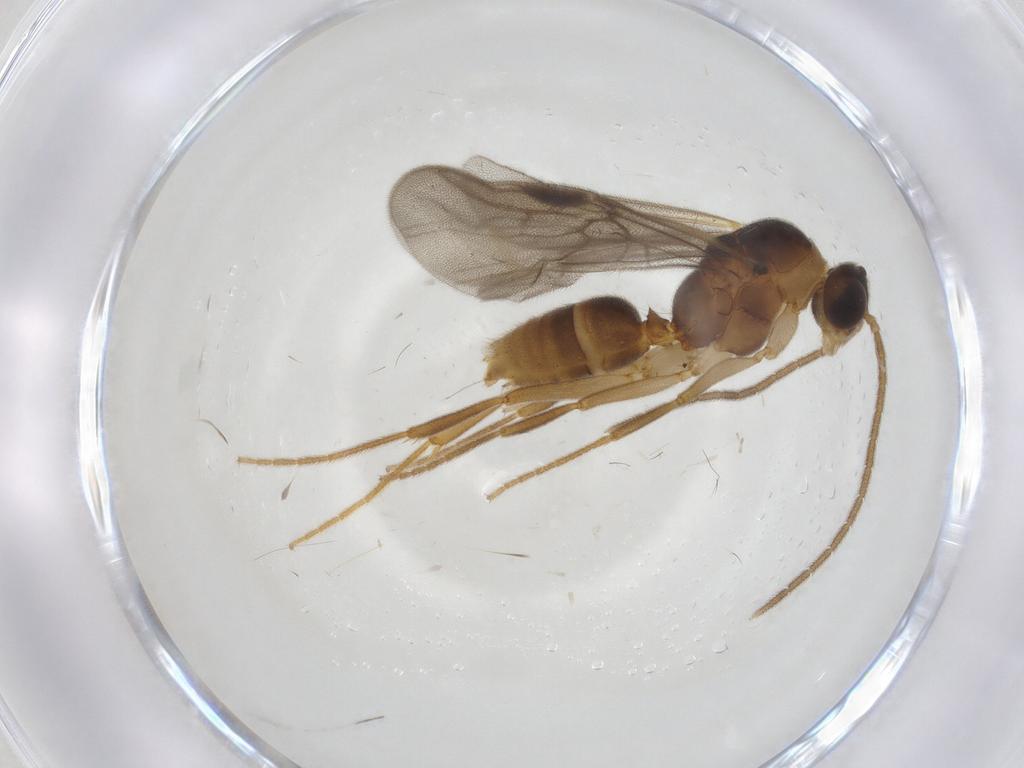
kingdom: Animalia
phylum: Arthropoda
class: Insecta
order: Hymenoptera
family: Formicidae
